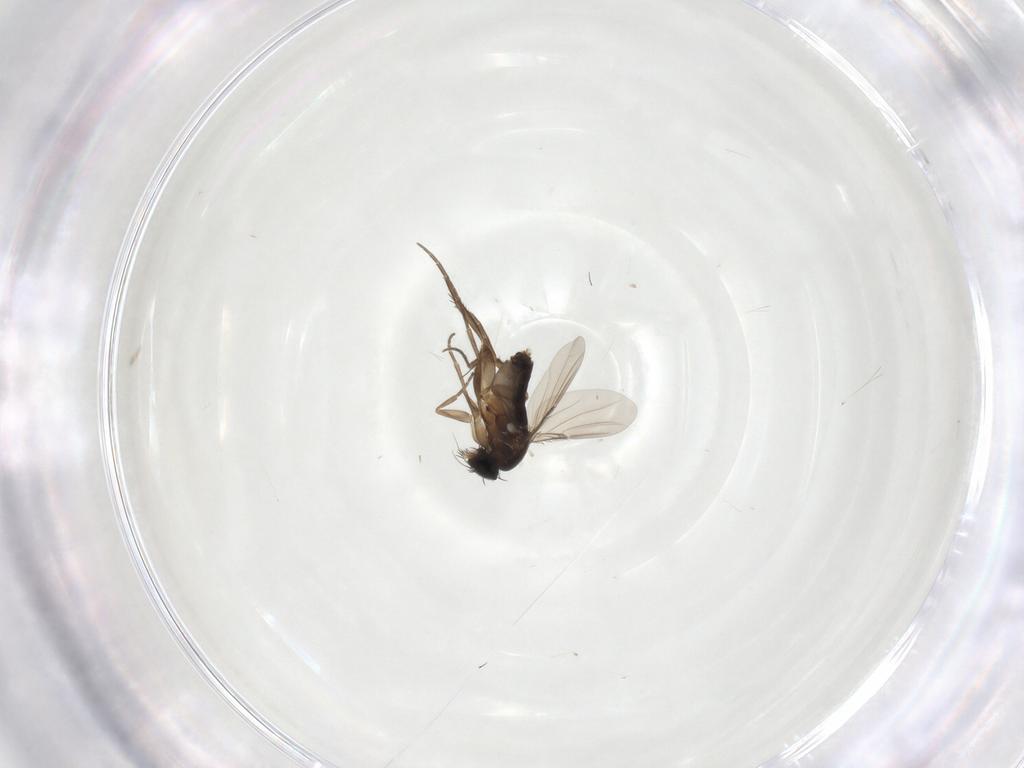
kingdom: Animalia
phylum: Arthropoda
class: Insecta
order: Diptera
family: Phoridae
